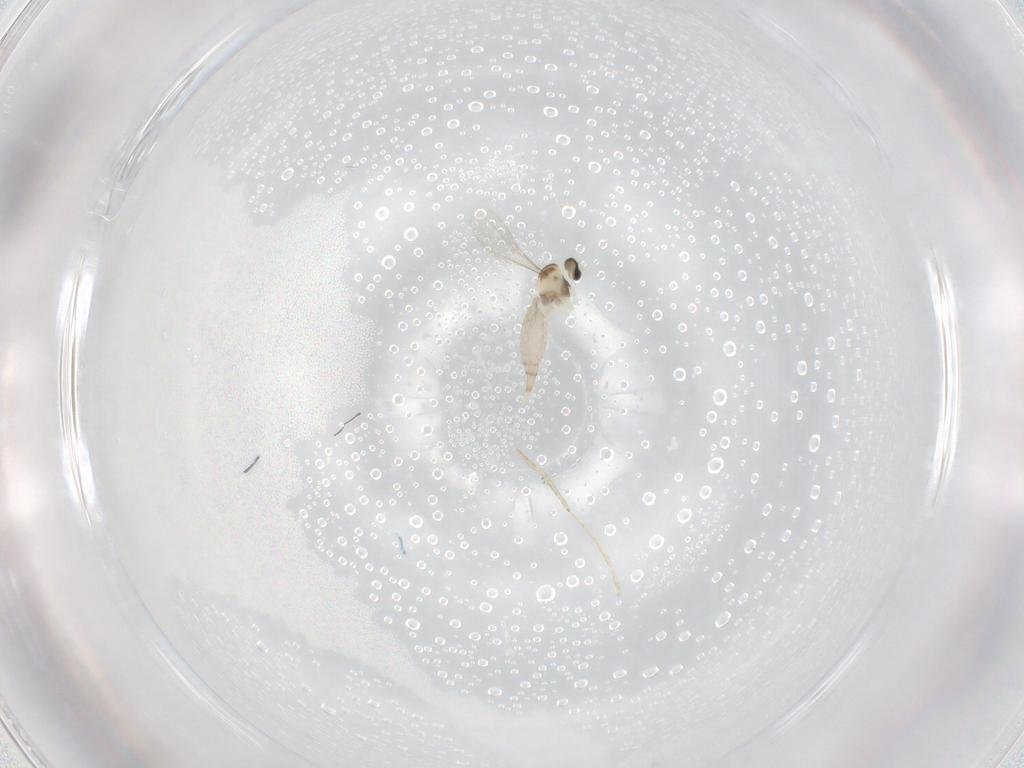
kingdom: Animalia
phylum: Arthropoda
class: Insecta
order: Diptera
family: Cecidomyiidae
